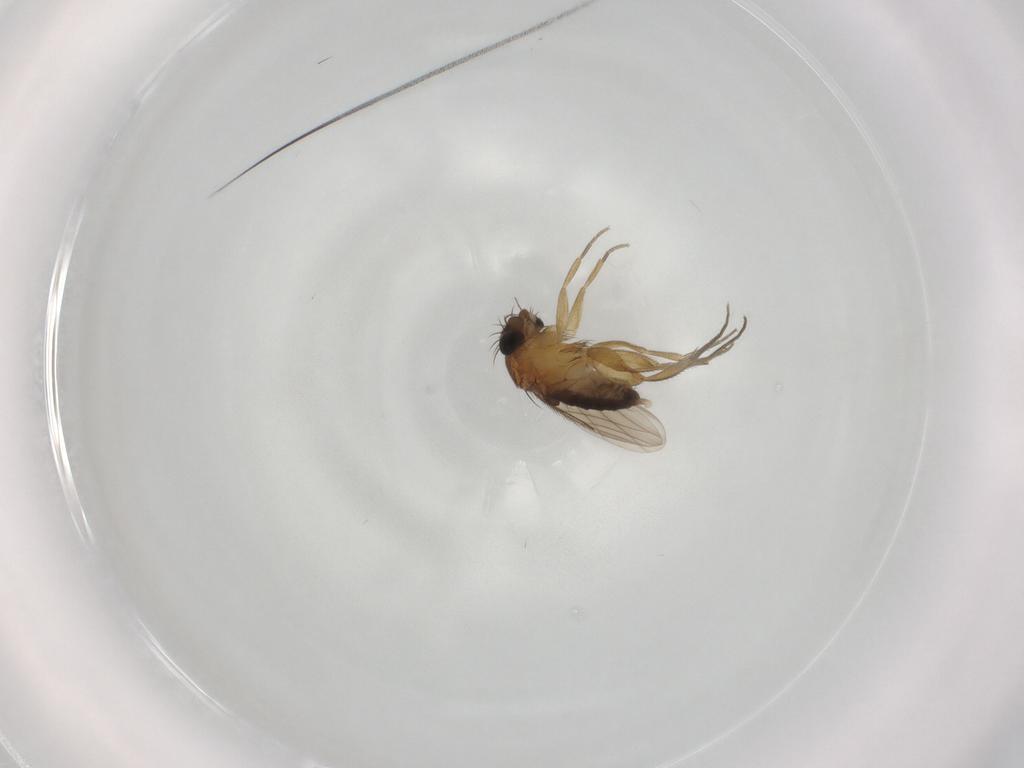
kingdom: Animalia
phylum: Arthropoda
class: Insecta
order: Diptera
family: Phoridae
